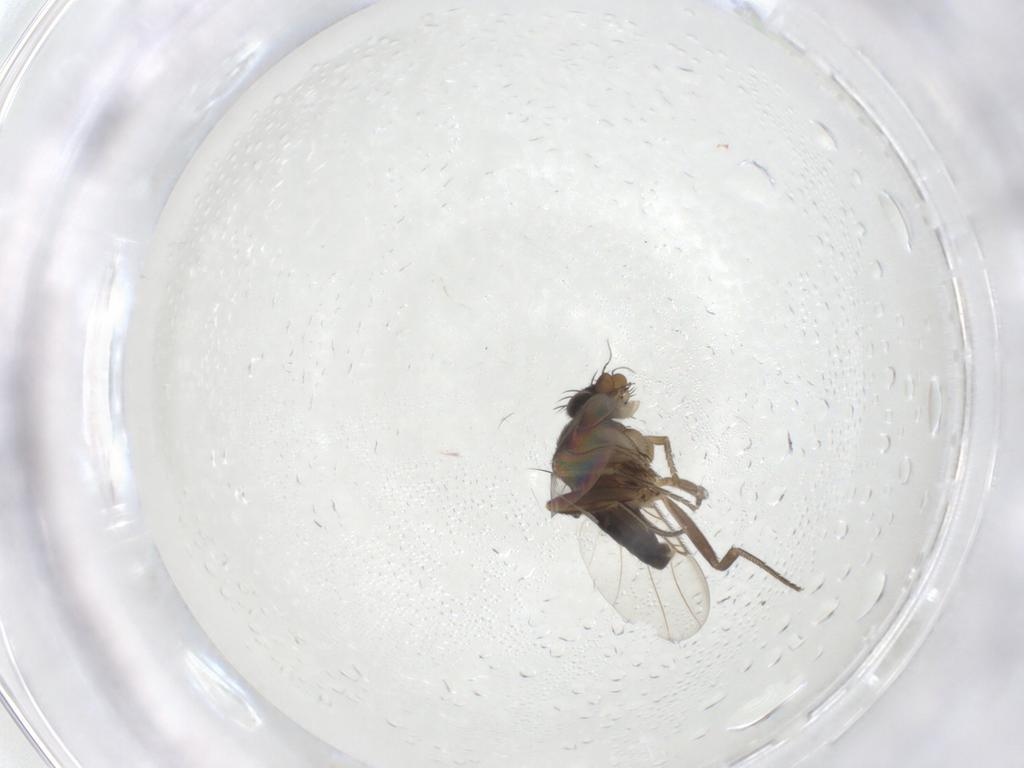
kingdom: Animalia
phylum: Arthropoda
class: Insecta
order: Diptera
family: Phoridae
